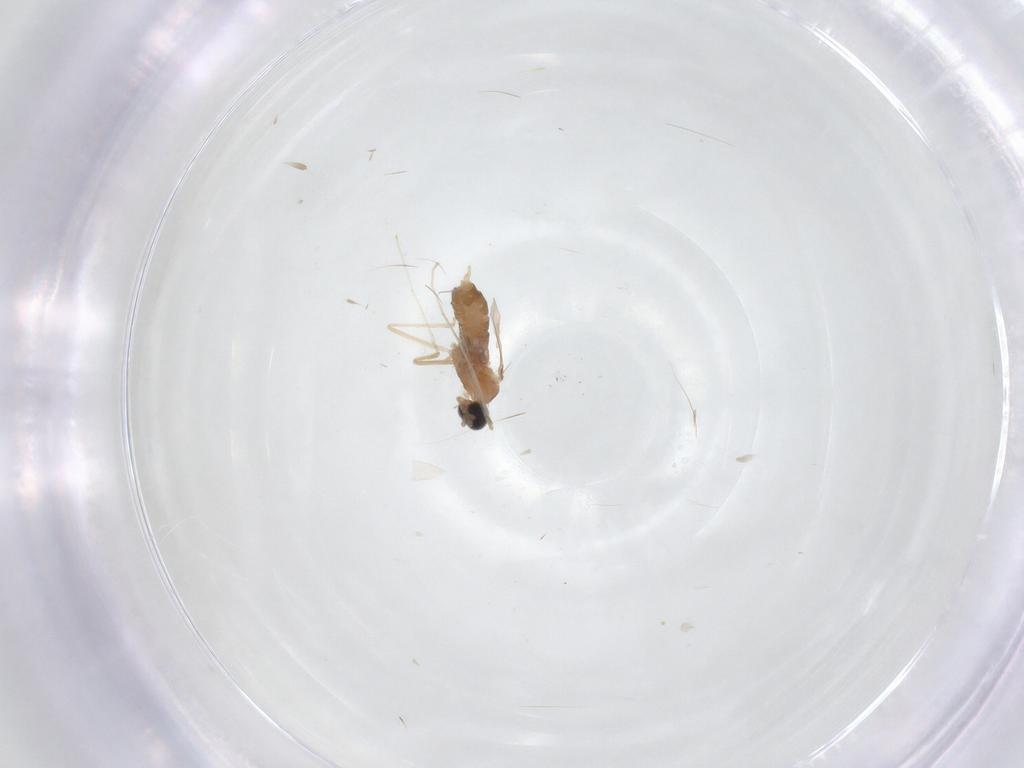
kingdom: Animalia
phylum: Arthropoda
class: Insecta
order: Diptera
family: Cecidomyiidae
